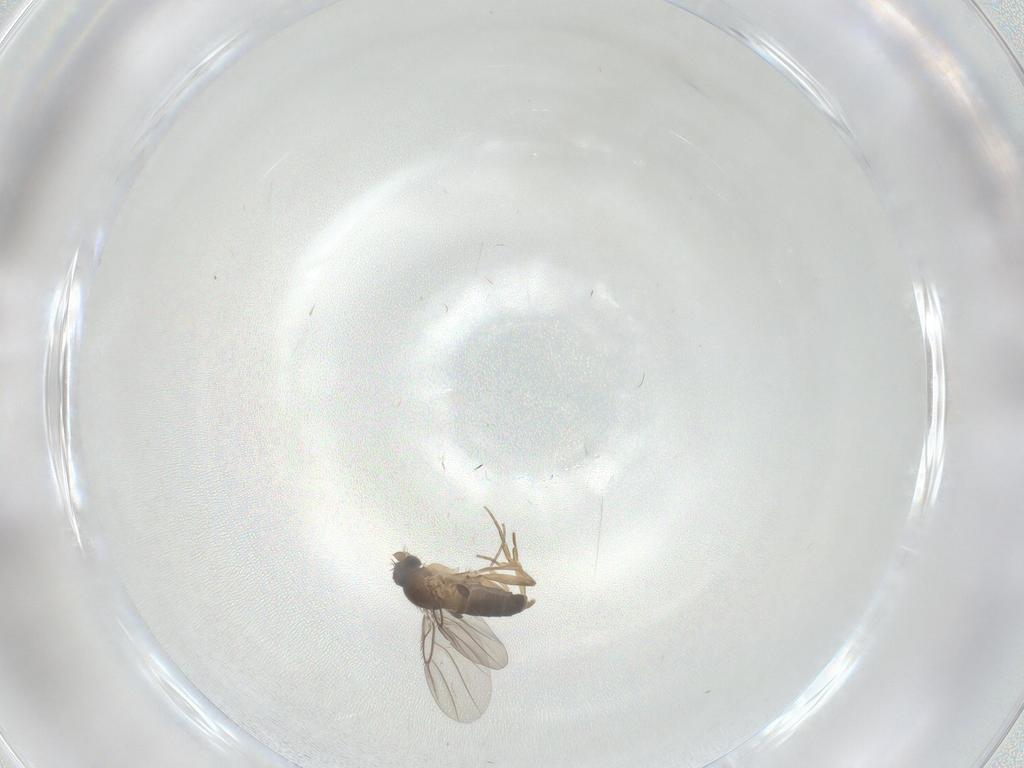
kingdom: Animalia
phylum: Arthropoda
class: Insecta
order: Diptera
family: Phoridae
